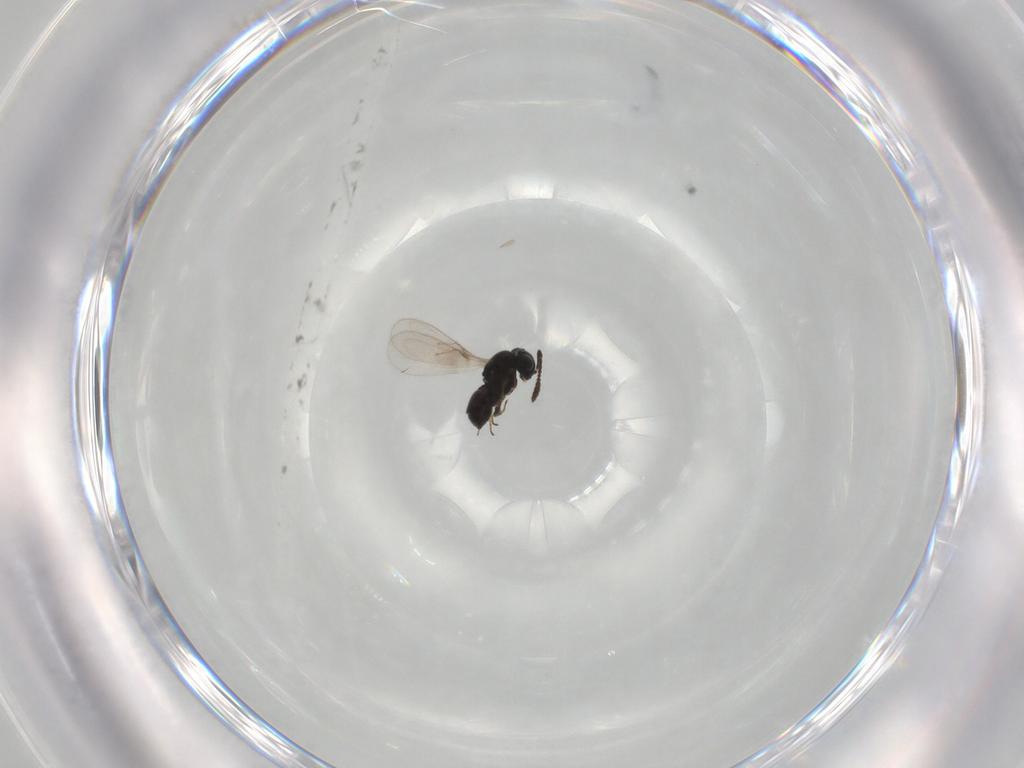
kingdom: Animalia
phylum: Arthropoda
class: Insecta
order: Hymenoptera
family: Scelionidae
